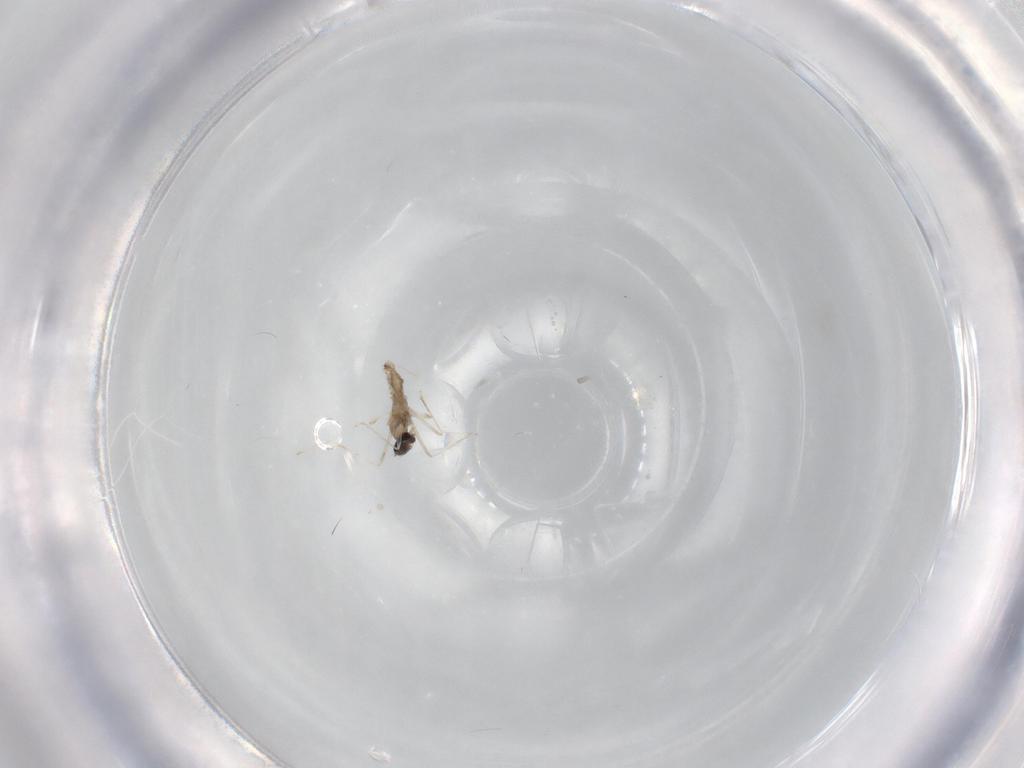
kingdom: Animalia
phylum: Arthropoda
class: Insecta
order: Diptera
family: Cecidomyiidae
